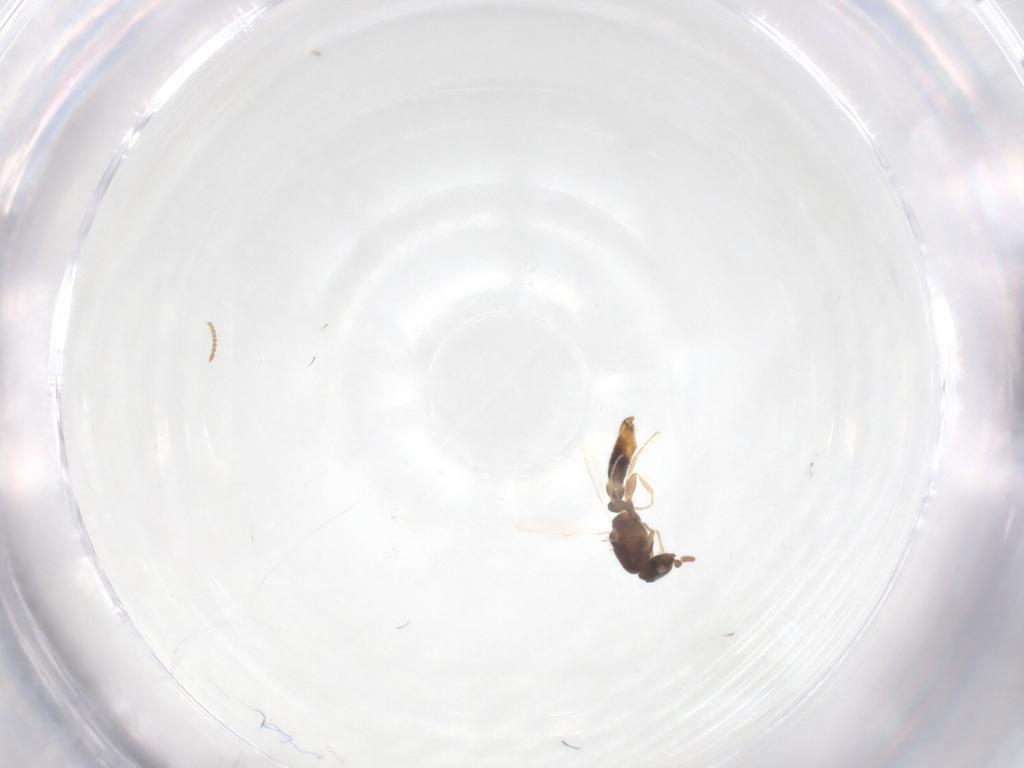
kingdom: Animalia
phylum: Arthropoda
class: Insecta
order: Hymenoptera
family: Formicidae
